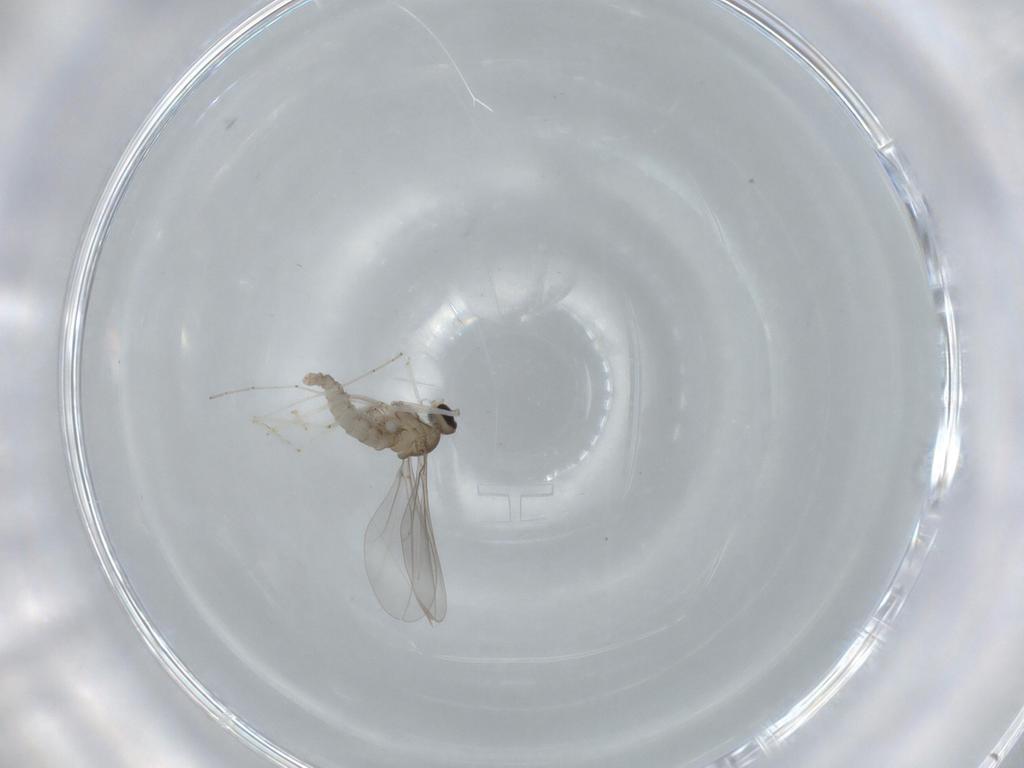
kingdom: Animalia
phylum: Arthropoda
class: Insecta
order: Diptera
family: Cecidomyiidae
